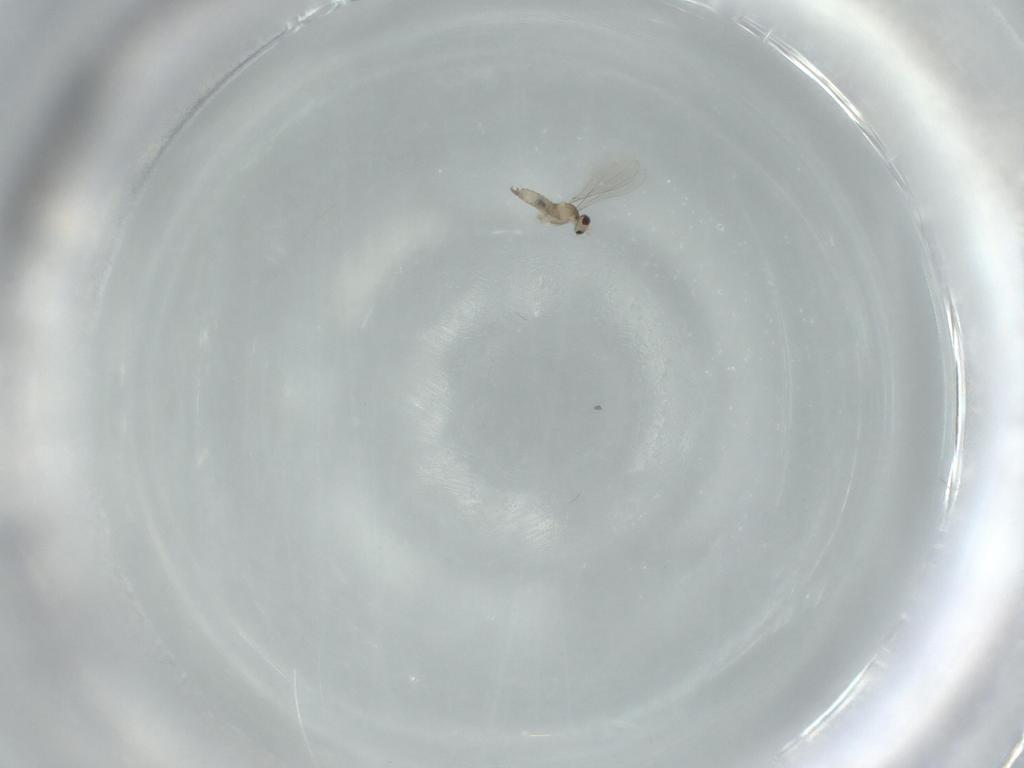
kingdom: Animalia
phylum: Arthropoda
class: Insecta
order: Diptera
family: Cecidomyiidae
